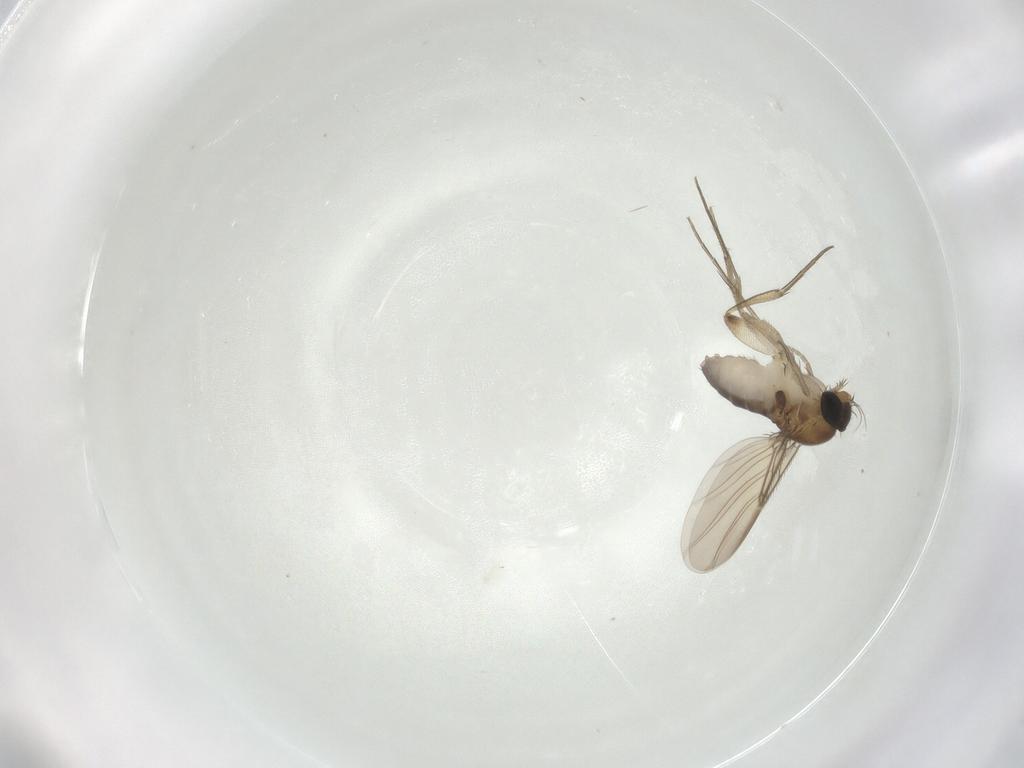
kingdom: Animalia
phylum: Arthropoda
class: Insecta
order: Diptera
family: Phoridae
